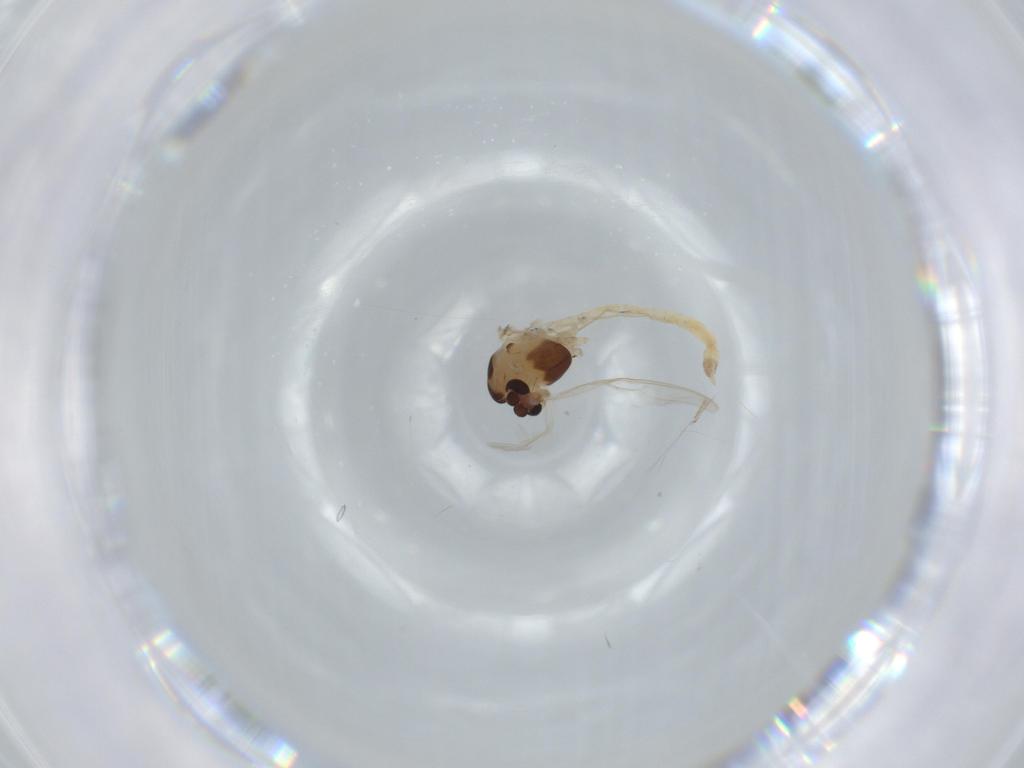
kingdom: Animalia
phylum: Arthropoda
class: Insecta
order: Diptera
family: Chironomidae
